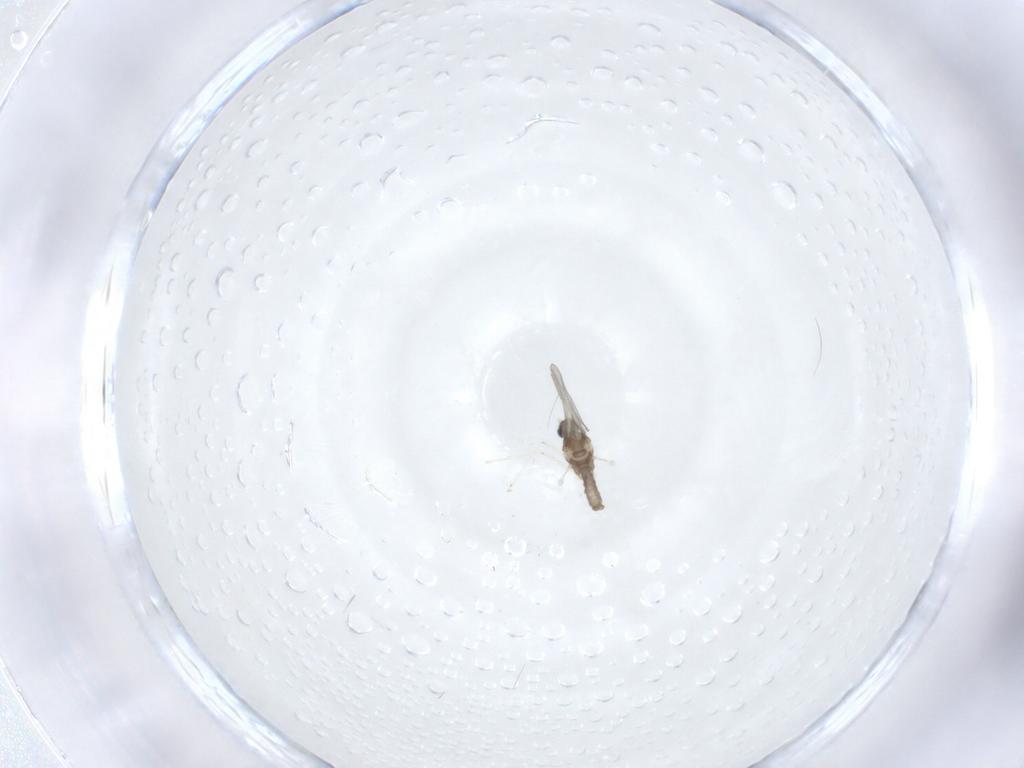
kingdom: Animalia
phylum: Arthropoda
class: Insecta
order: Diptera
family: Cecidomyiidae
